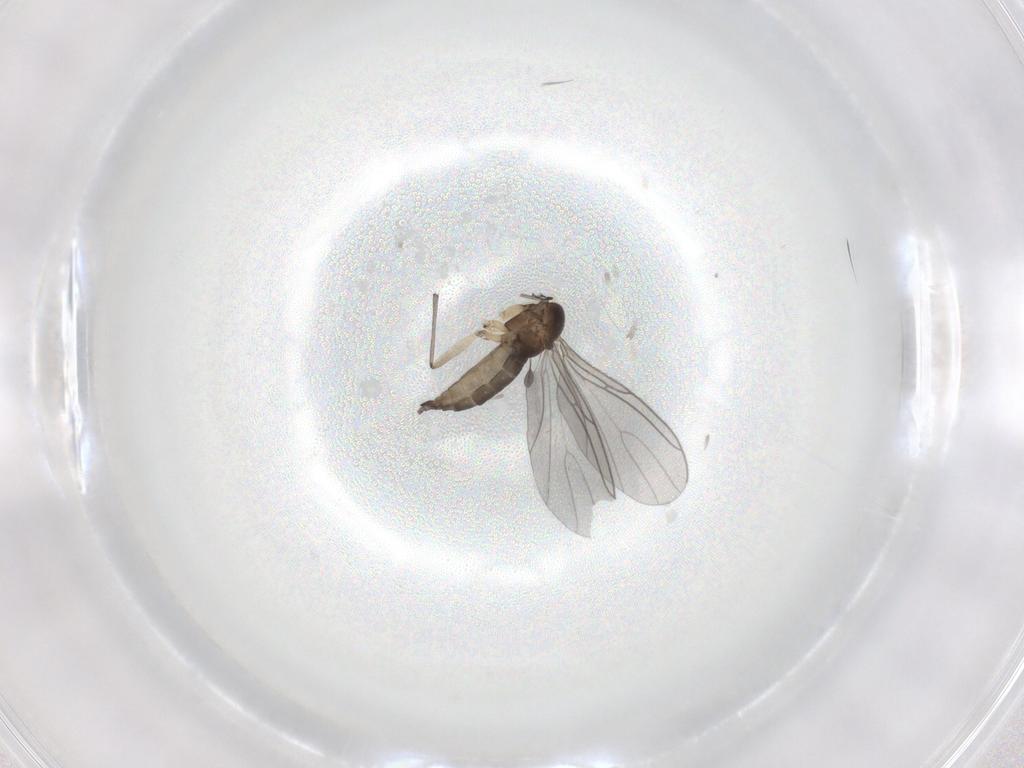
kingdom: Animalia
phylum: Arthropoda
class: Insecta
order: Diptera
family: Sciaridae
